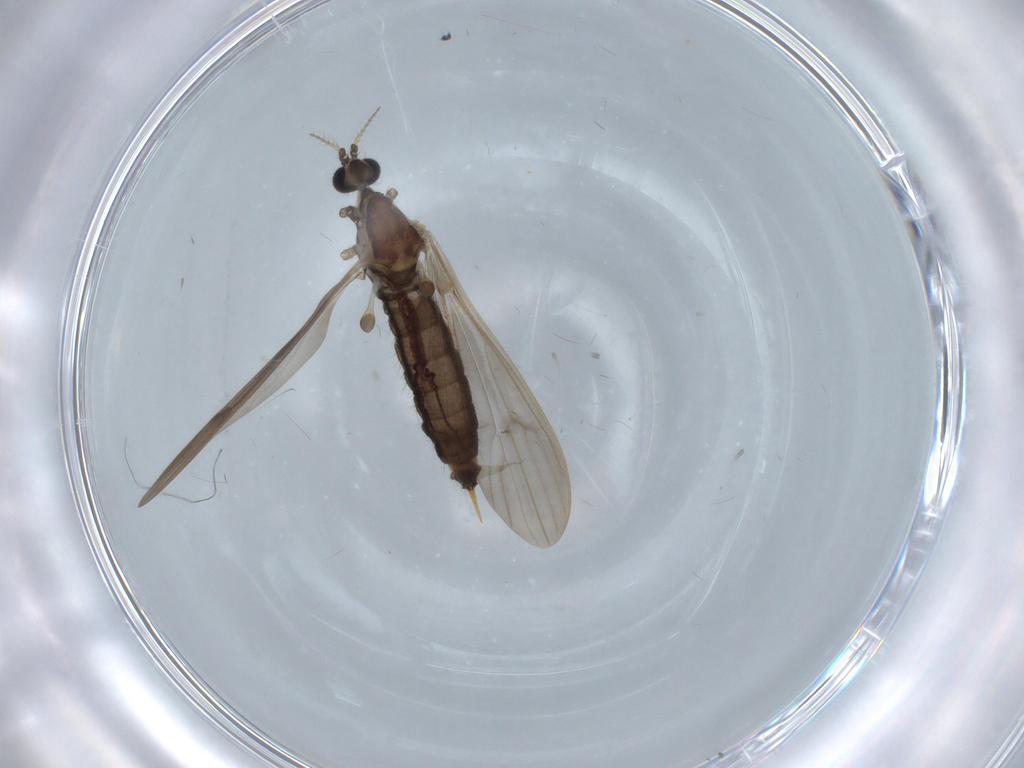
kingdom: Animalia
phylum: Arthropoda
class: Insecta
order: Diptera
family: Limoniidae
